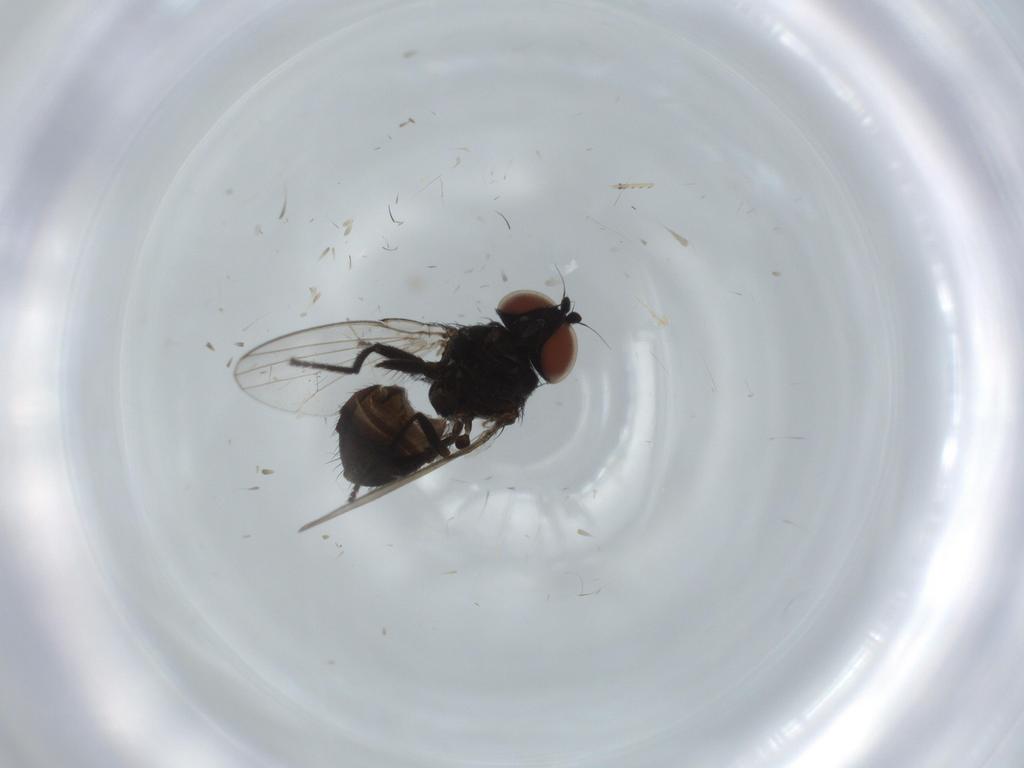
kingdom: Animalia
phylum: Arthropoda
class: Insecta
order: Diptera
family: Milichiidae
